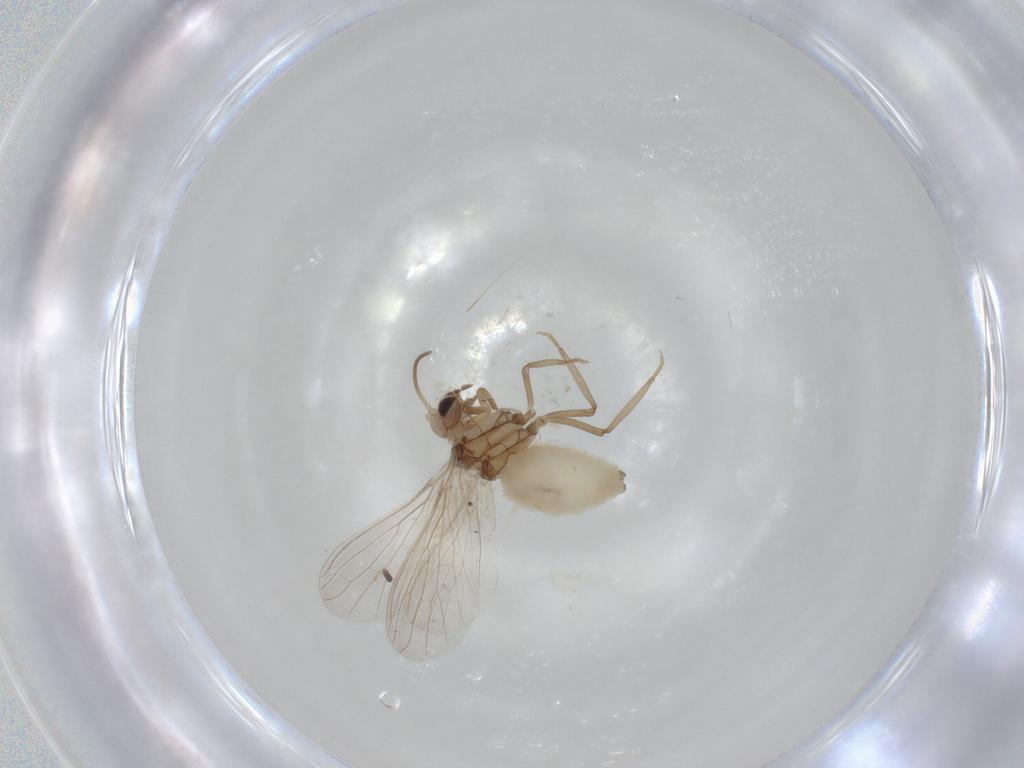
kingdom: Animalia
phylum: Arthropoda
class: Insecta
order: Neuroptera
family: Coniopterygidae
